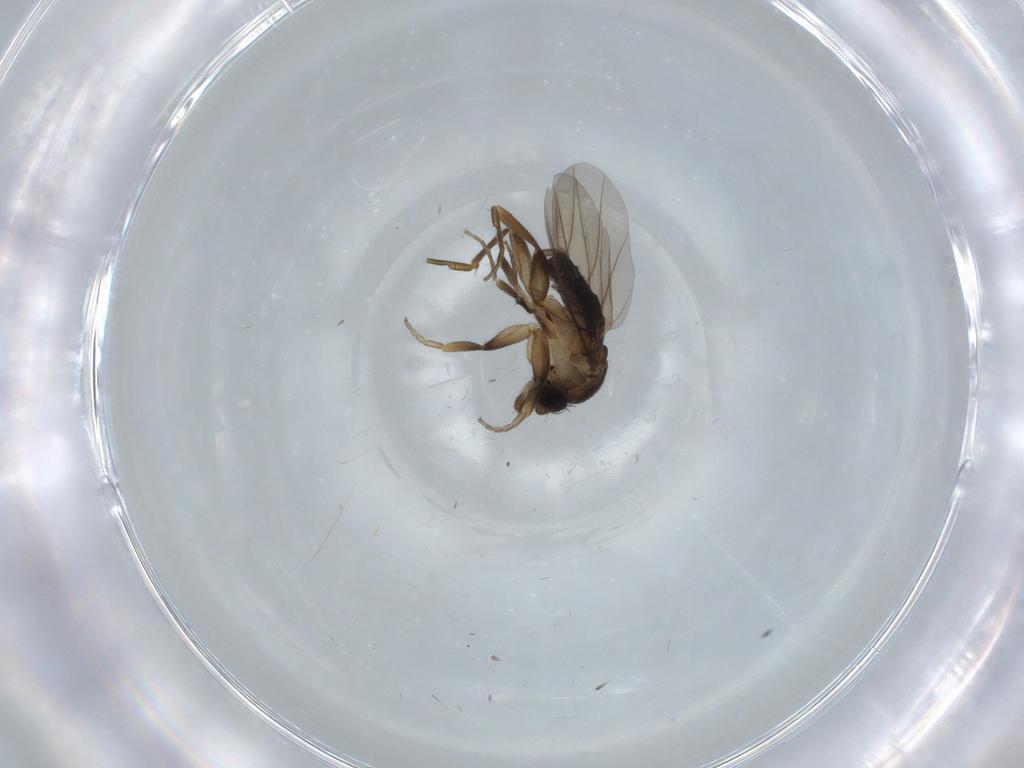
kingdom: Animalia
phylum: Arthropoda
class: Insecta
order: Diptera
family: Phoridae
